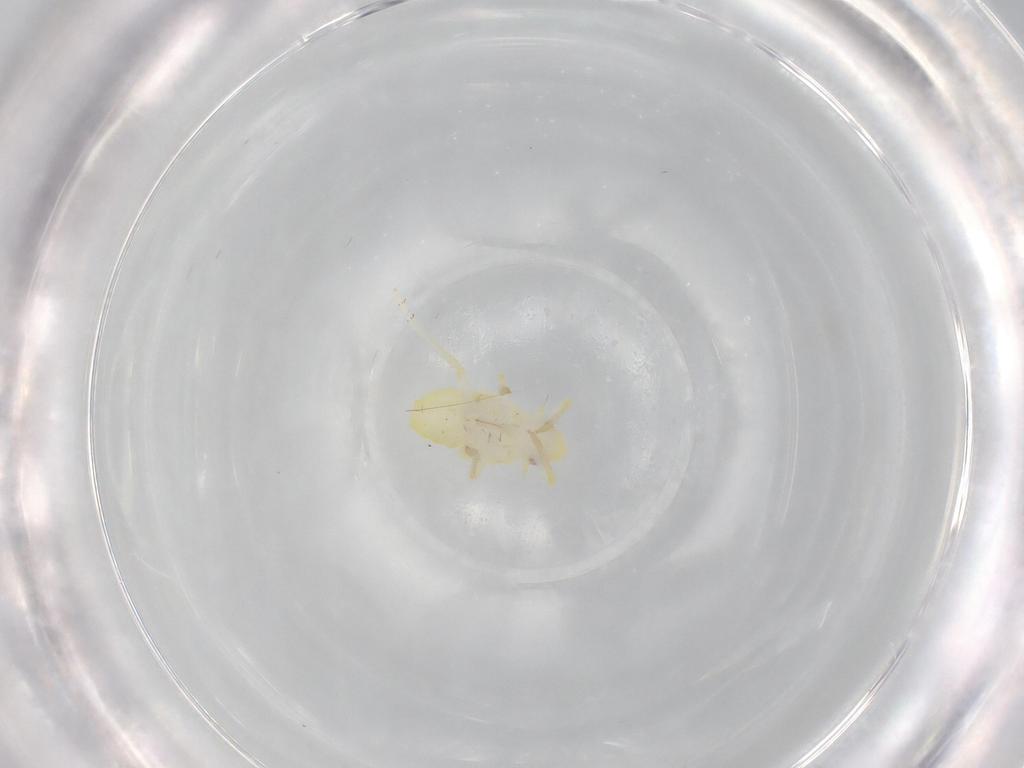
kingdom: Animalia
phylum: Arthropoda
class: Insecta
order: Hemiptera
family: Fulgoroidea_incertae_sedis
